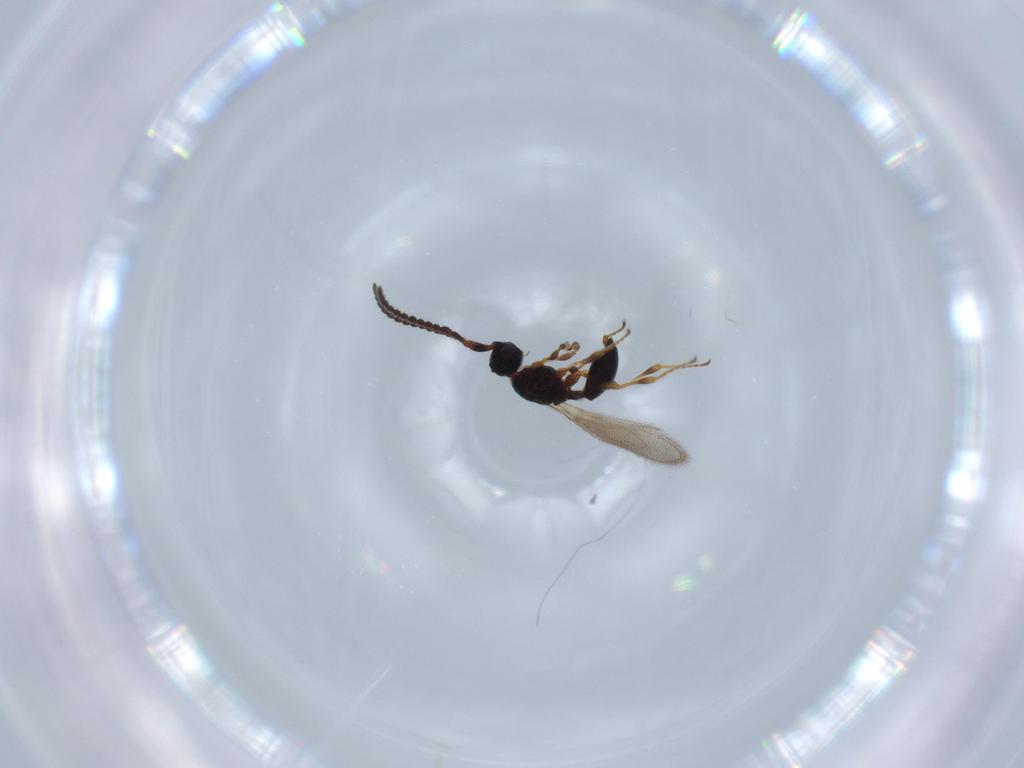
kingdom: Animalia
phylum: Arthropoda
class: Insecta
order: Hymenoptera
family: Diapriidae
